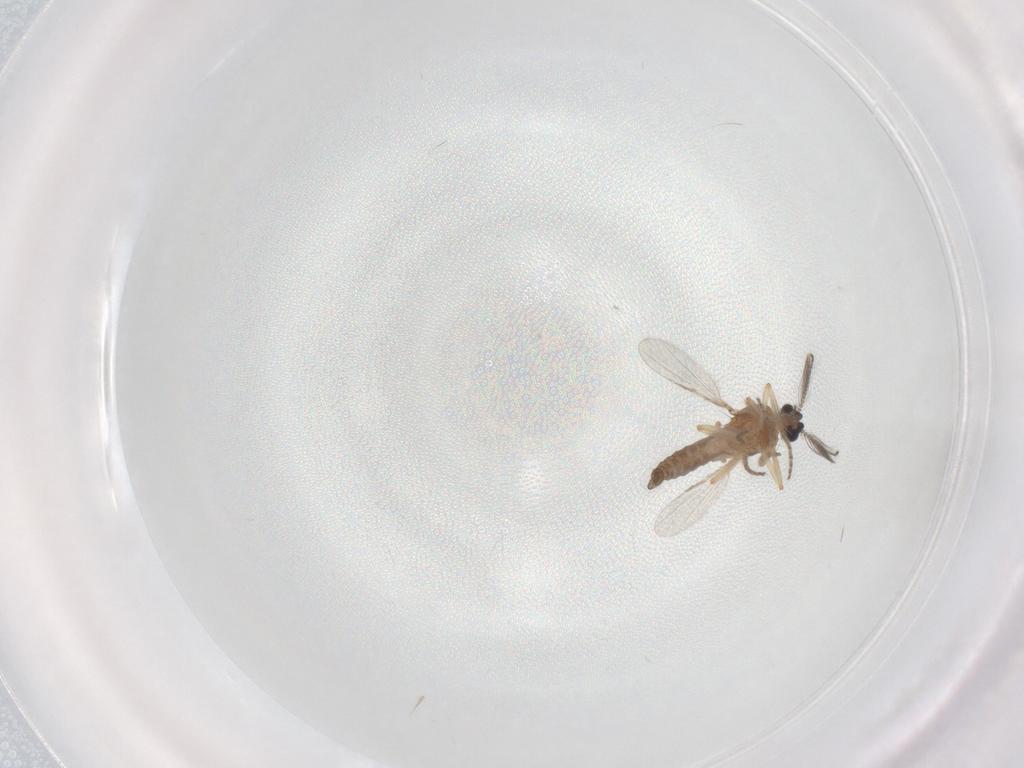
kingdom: Animalia
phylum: Arthropoda
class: Insecta
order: Diptera
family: Ceratopogonidae
